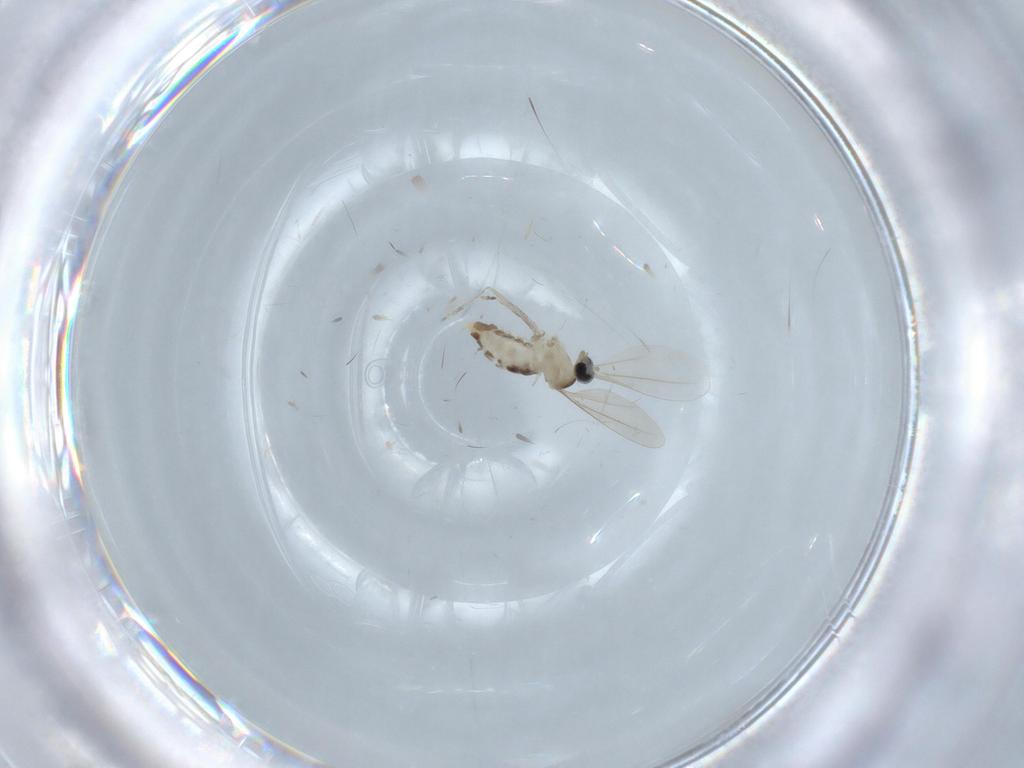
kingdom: Animalia
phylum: Arthropoda
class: Insecta
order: Diptera
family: Cecidomyiidae
